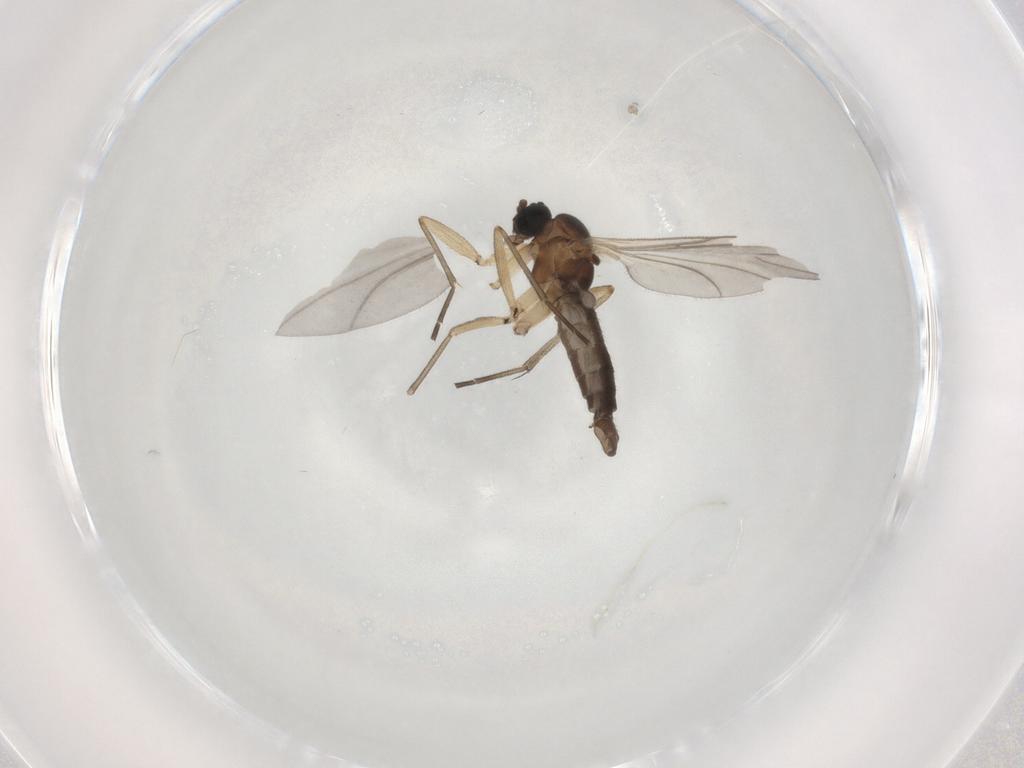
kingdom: Animalia
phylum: Arthropoda
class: Insecta
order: Diptera
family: Sciaridae
